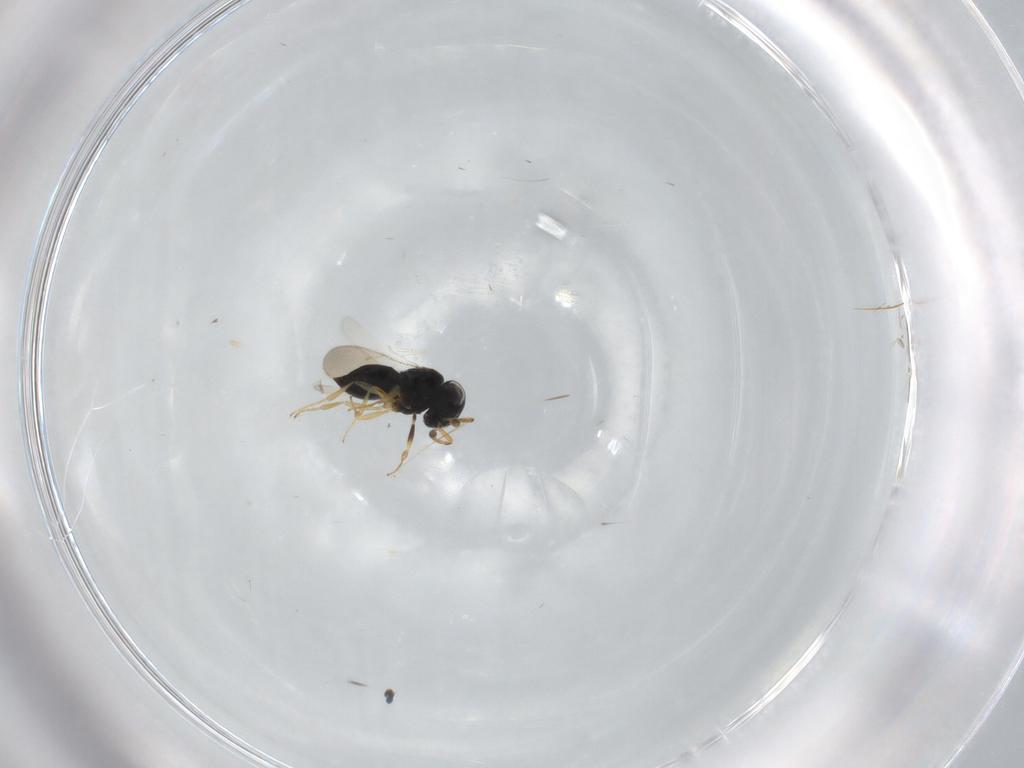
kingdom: Animalia
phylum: Arthropoda
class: Insecta
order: Hymenoptera
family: Scelionidae
